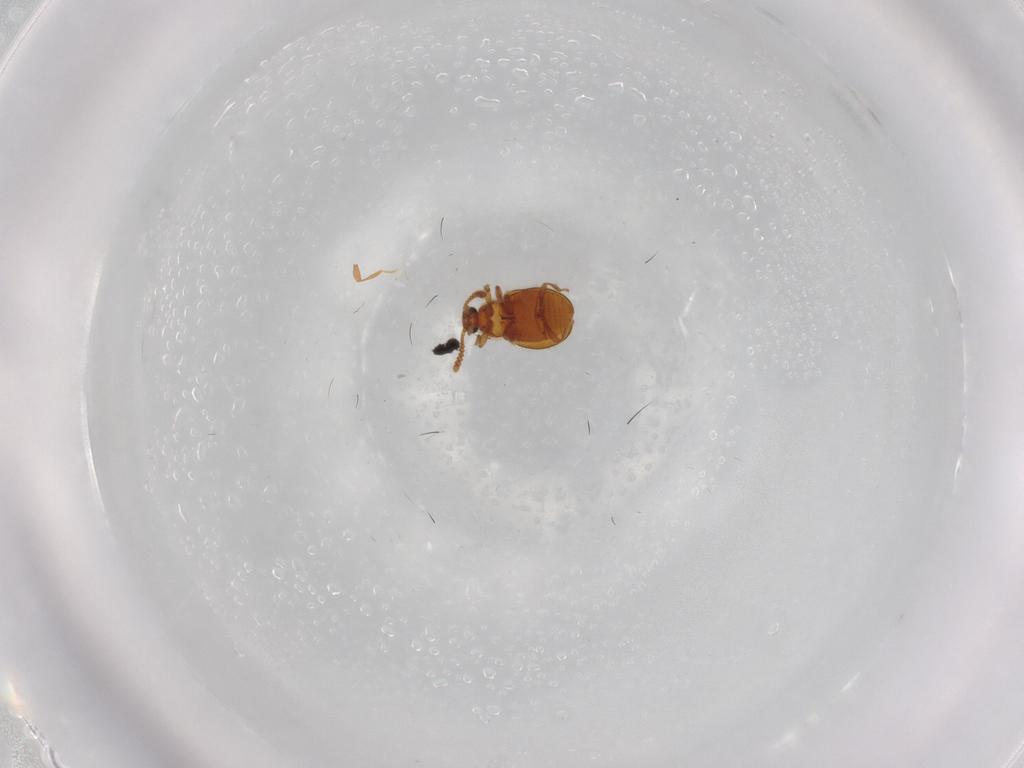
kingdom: Animalia
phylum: Arthropoda
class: Insecta
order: Coleoptera
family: Staphylinidae
